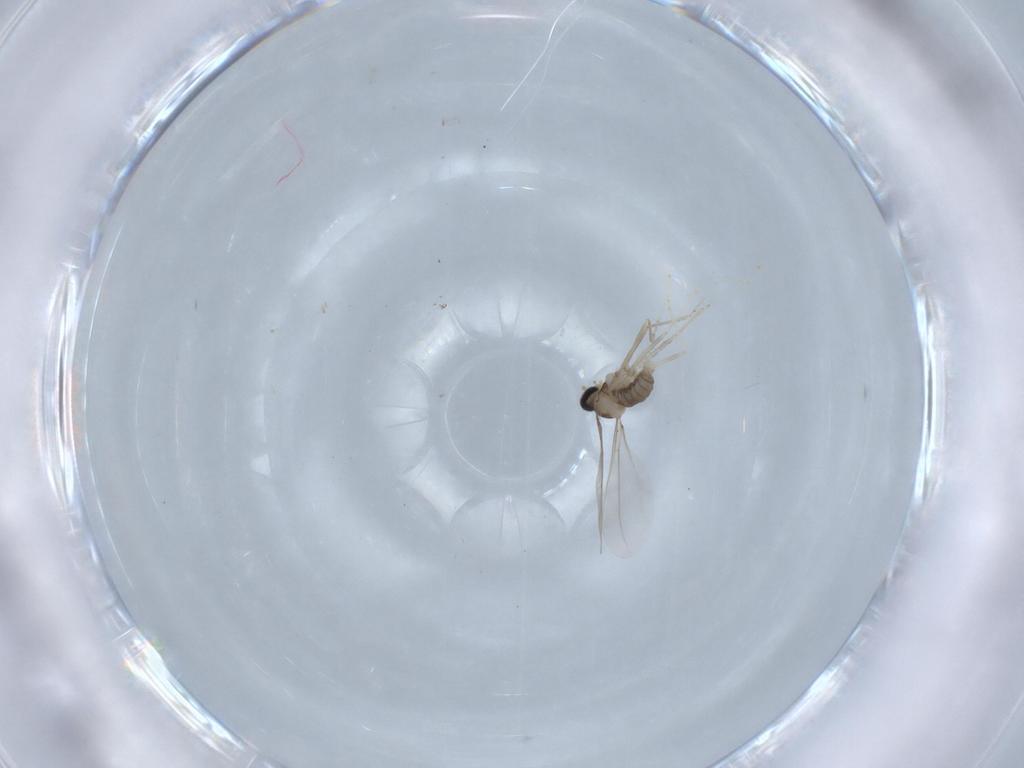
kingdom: Animalia
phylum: Arthropoda
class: Insecta
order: Diptera
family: Cecidomyiidae
